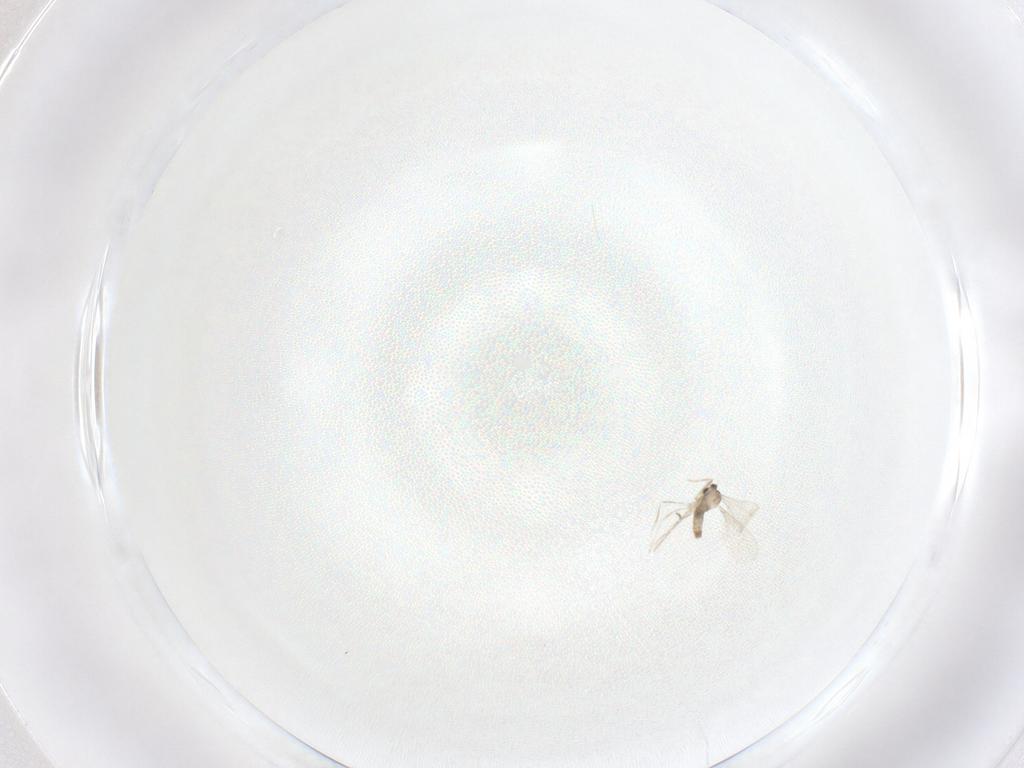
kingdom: Animalia
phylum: Arthropoda
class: Insecta
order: Diptera
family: Cecidomyiidae
